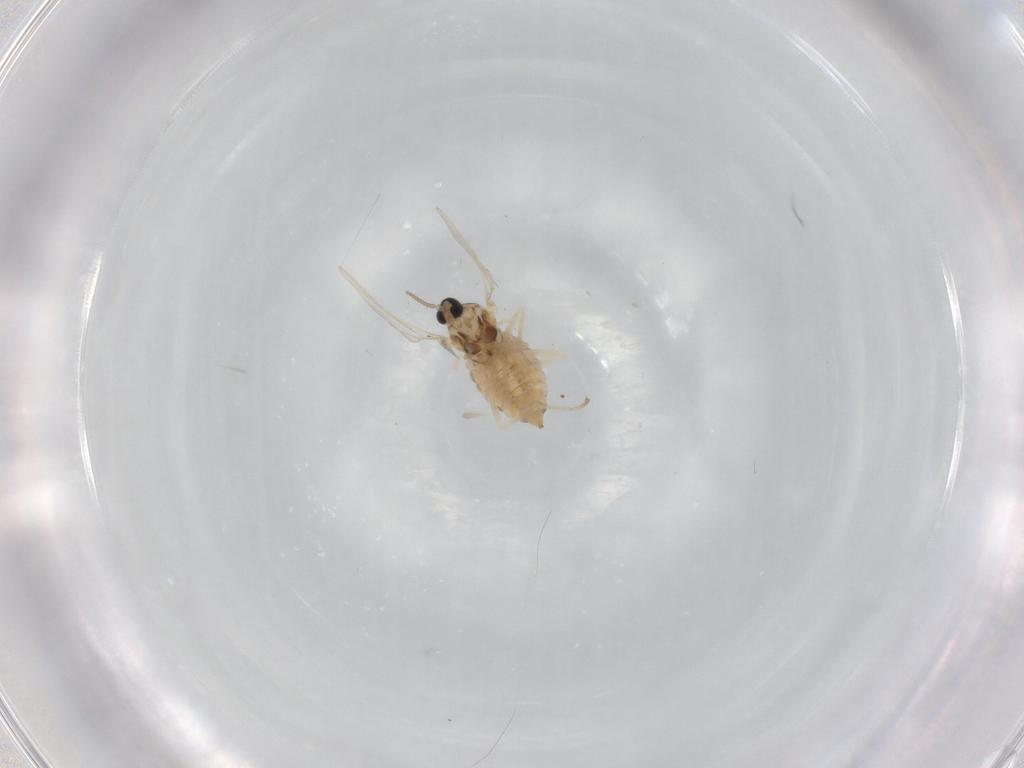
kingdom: Animalia
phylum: Arthropoda
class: Insecta
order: Diptera
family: Cecidomyiidae
